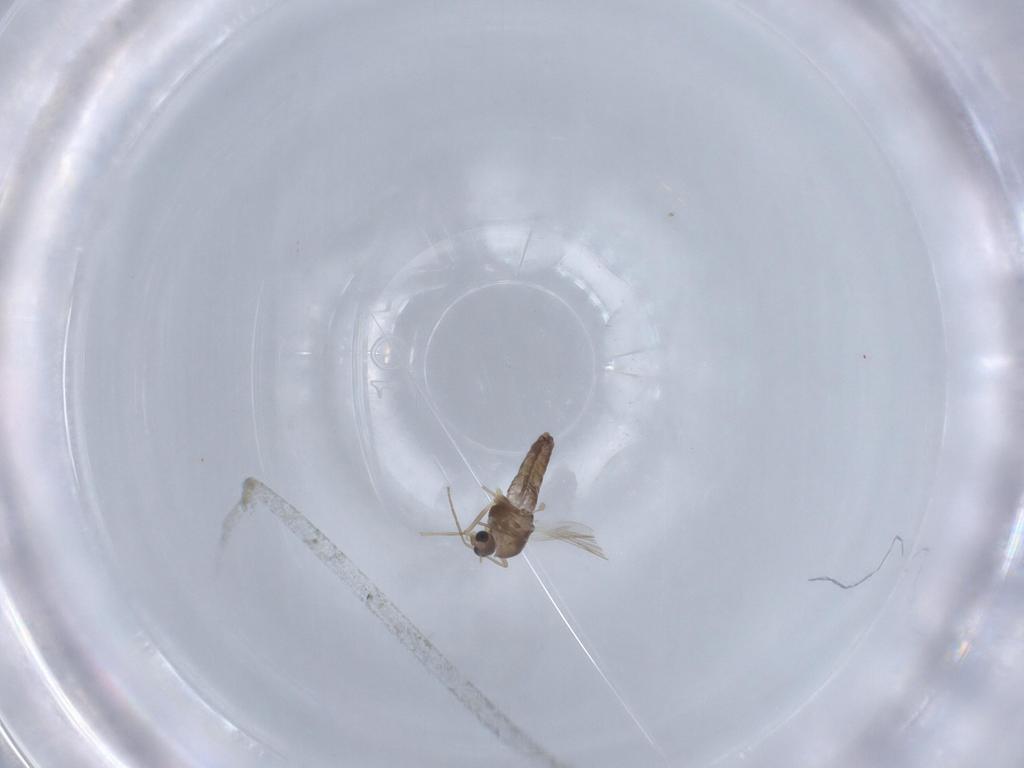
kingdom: Animalia
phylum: Arthropoda
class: Insecta
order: Diptera
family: Chironomidae
